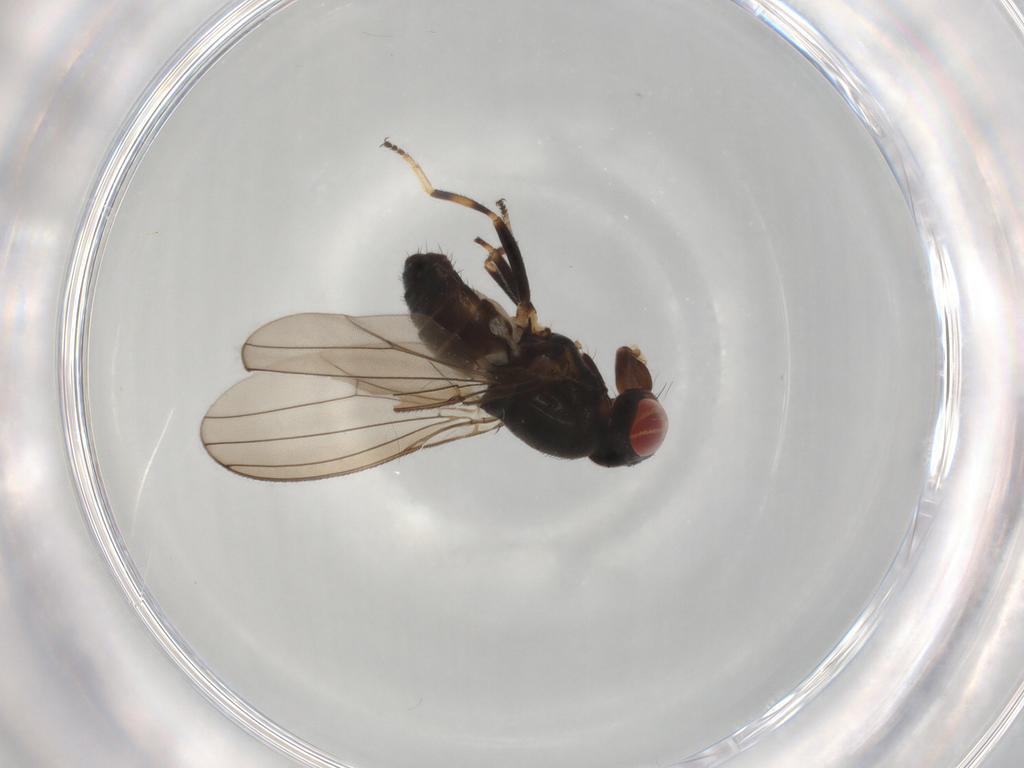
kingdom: Animalia
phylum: Arthropoda
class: Insecta
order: Diptera
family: Aulacigastridae
